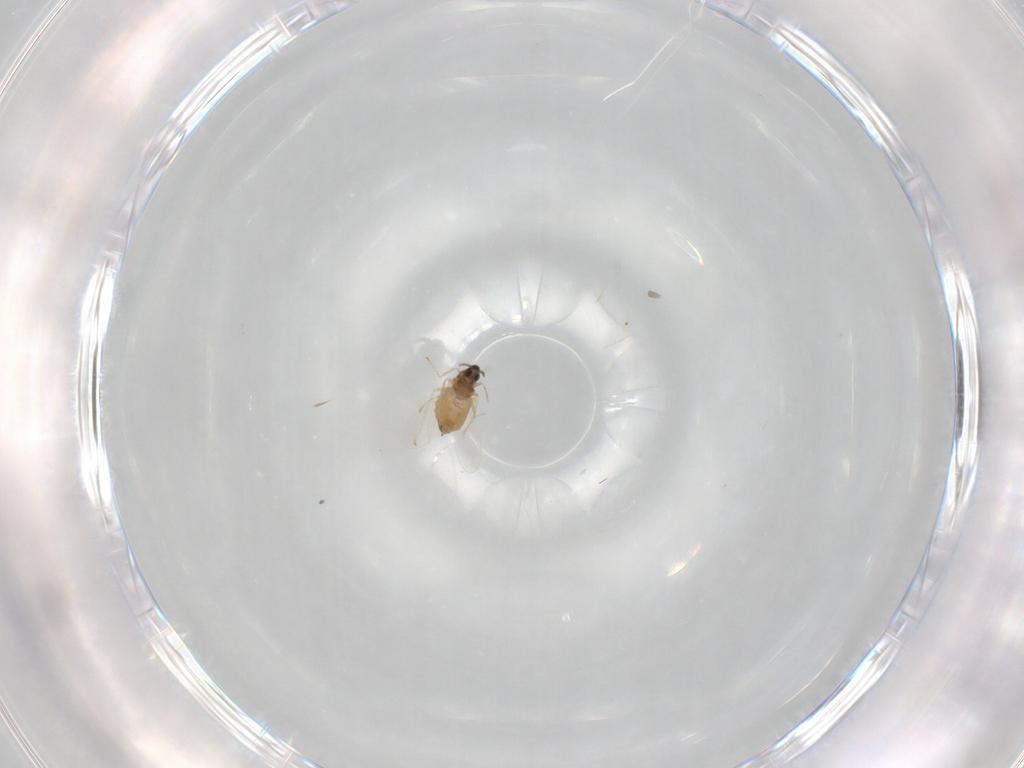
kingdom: Animalia
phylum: Arthropoda
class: Insecta
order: Diptera
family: Cecidomyiidae
